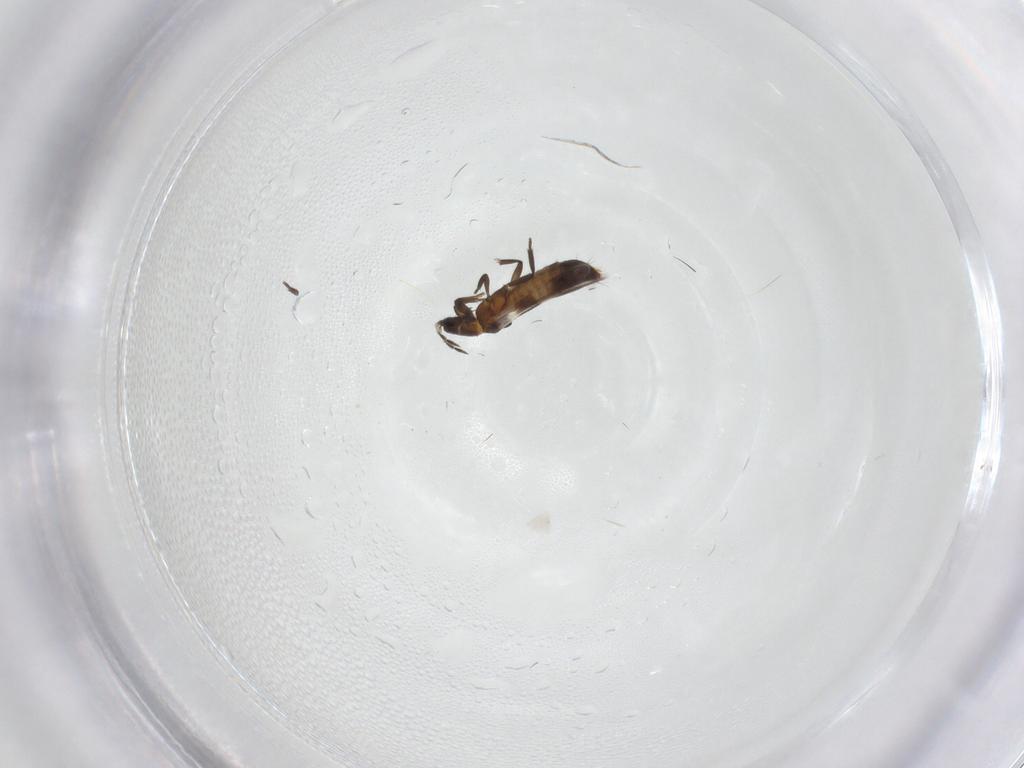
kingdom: Animalia
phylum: Arthropoda
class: Insecta
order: Thysanoptera
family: Aeolothripidae
